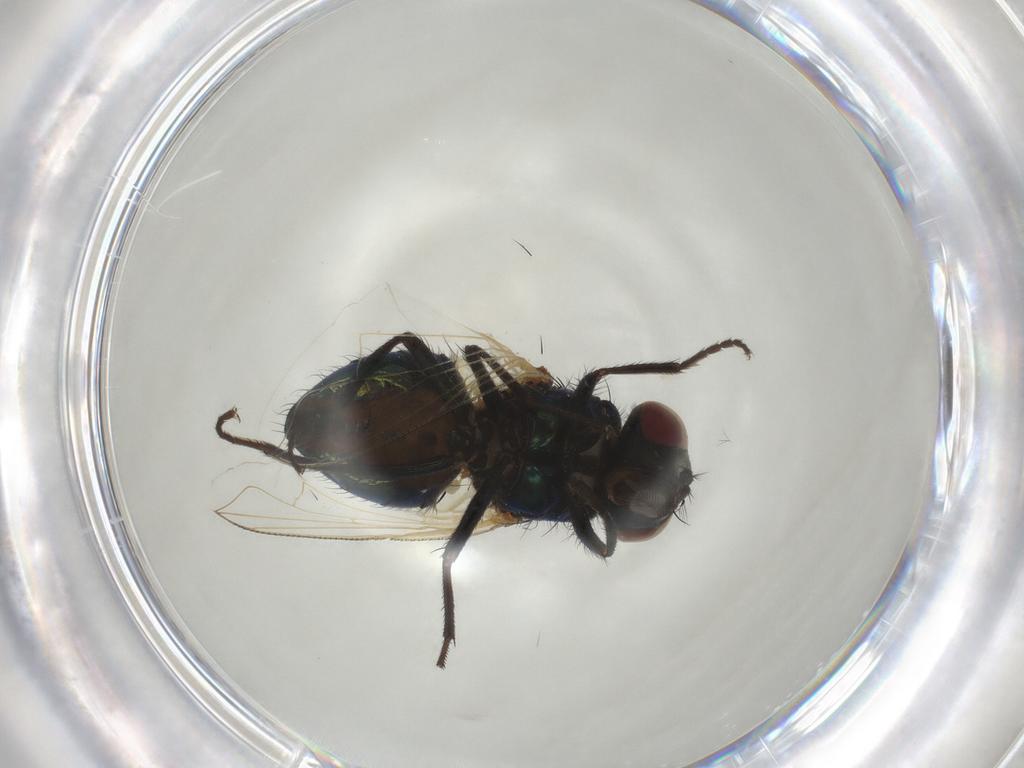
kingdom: Animalia
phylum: Arthropoda
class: Insecta
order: Diptera
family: Muscidae
